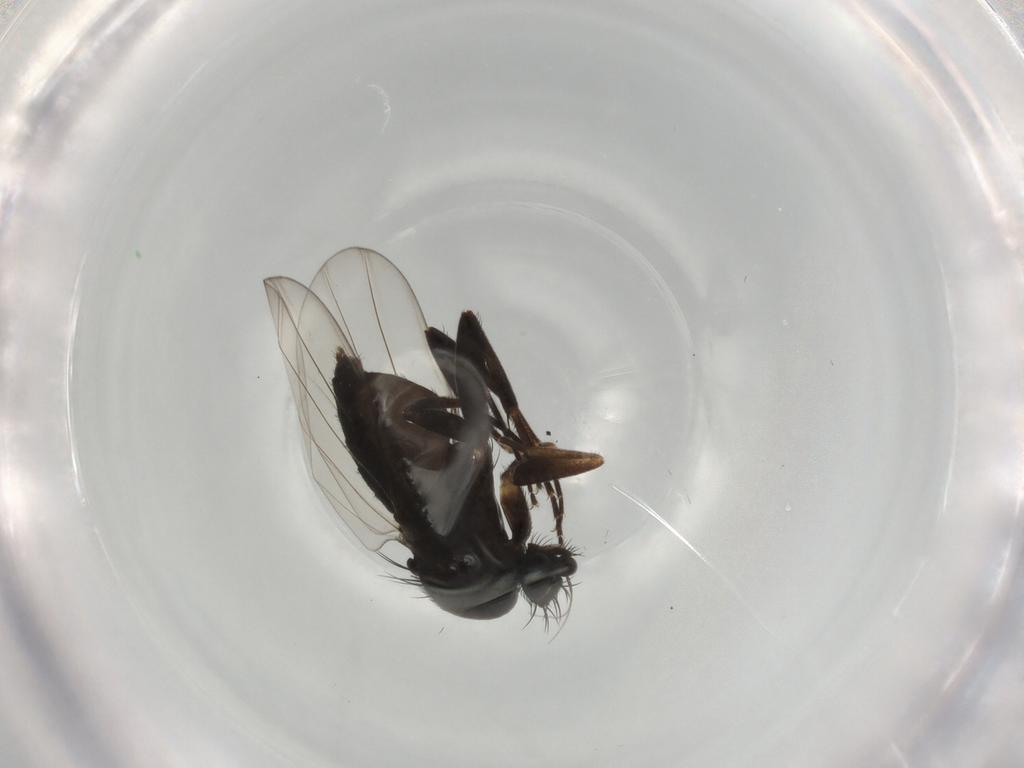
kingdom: Animalia
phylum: Arthropoda
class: Insecta
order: Diptera
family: Phoridae
